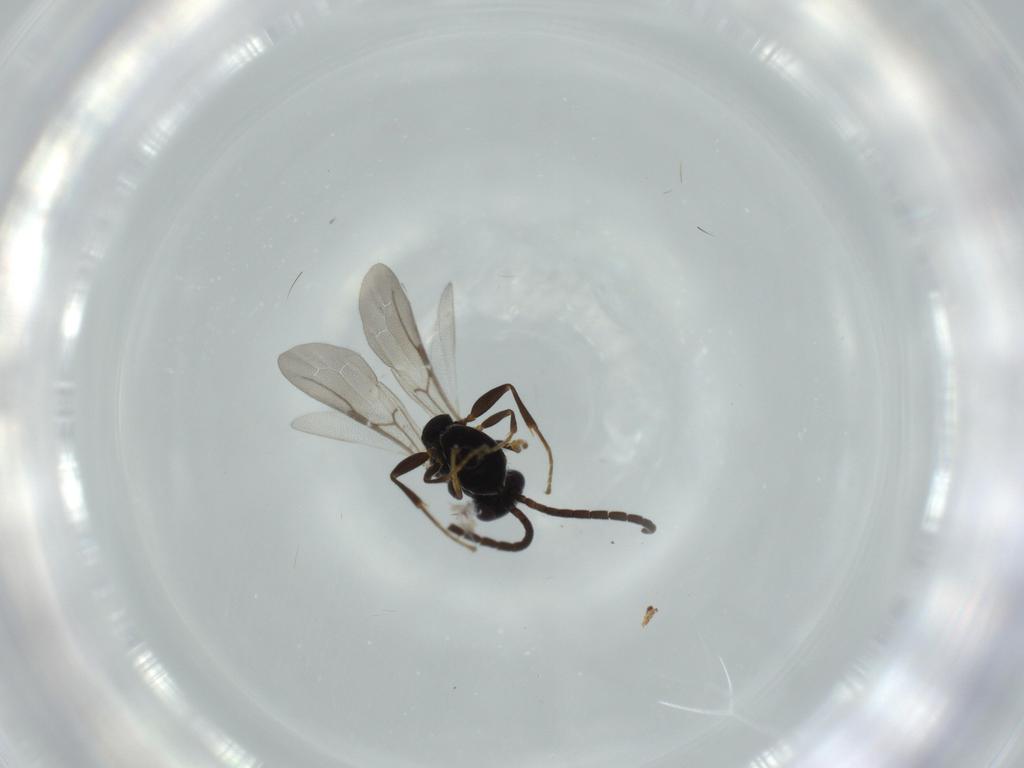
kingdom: Animalia
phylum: Arthropoda
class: Insecta
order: Hymenoptera
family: Bethylidae
